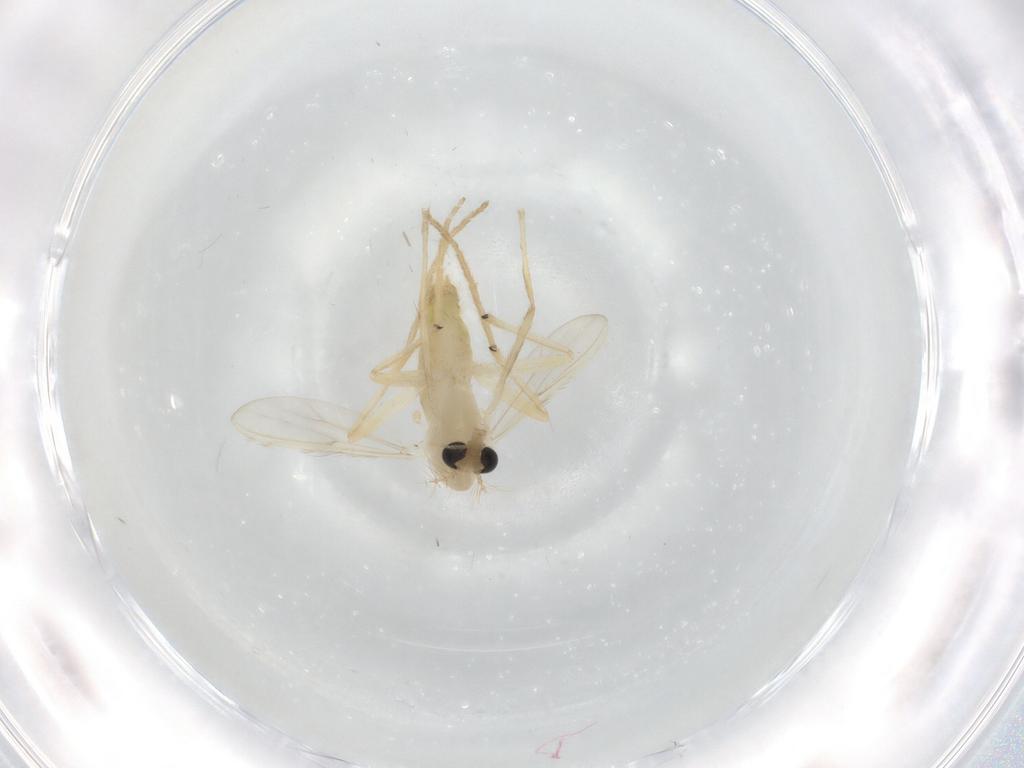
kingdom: Animalia
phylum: Arthropoda
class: Insecta
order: Diptera
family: Chironomidae
